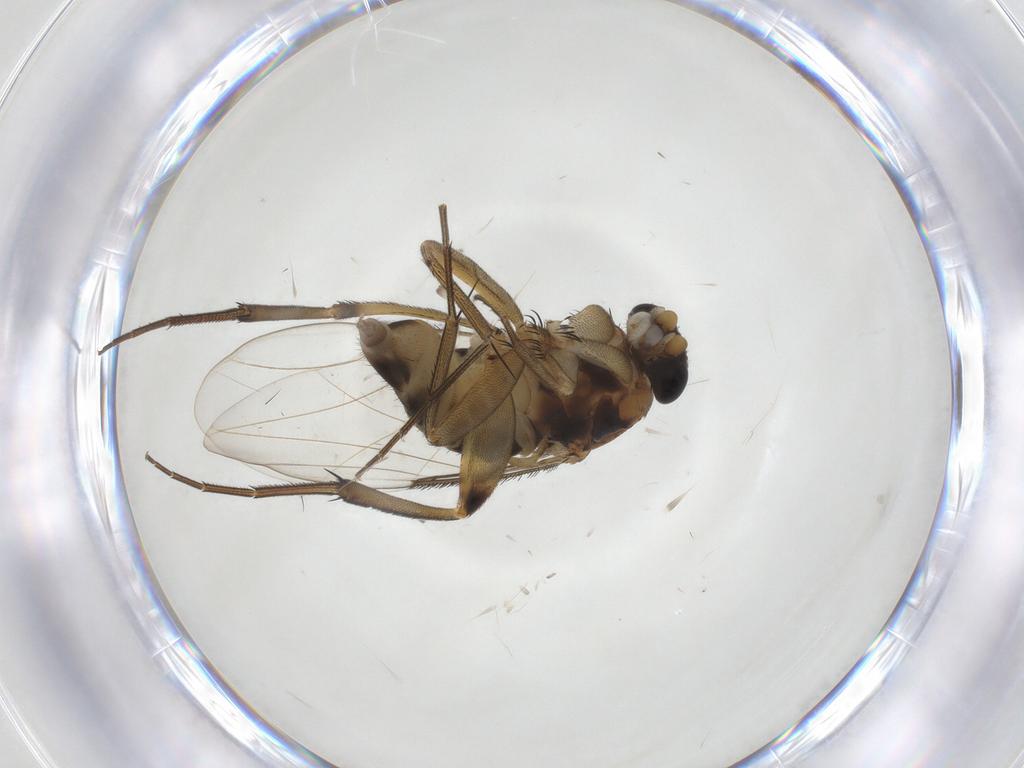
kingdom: Animalia
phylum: Arthropoda
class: Insecta
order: Diptera
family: Phoridae
